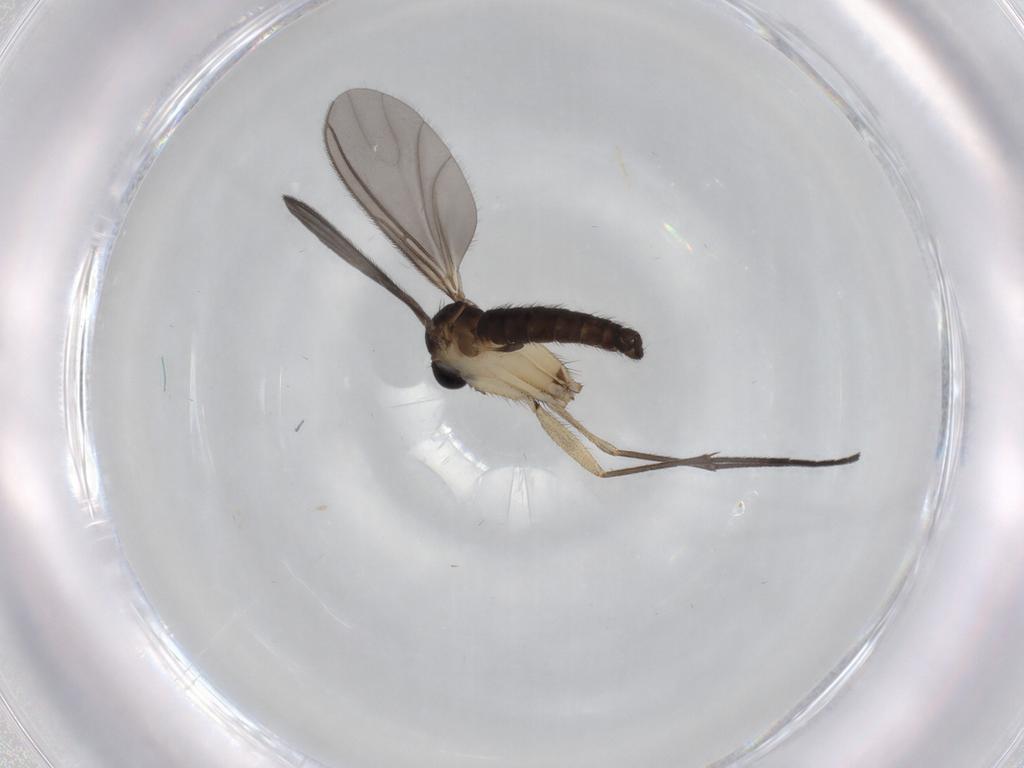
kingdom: Animalia
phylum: Arthropoda
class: Insecta
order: Diptera
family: Sciaridae
